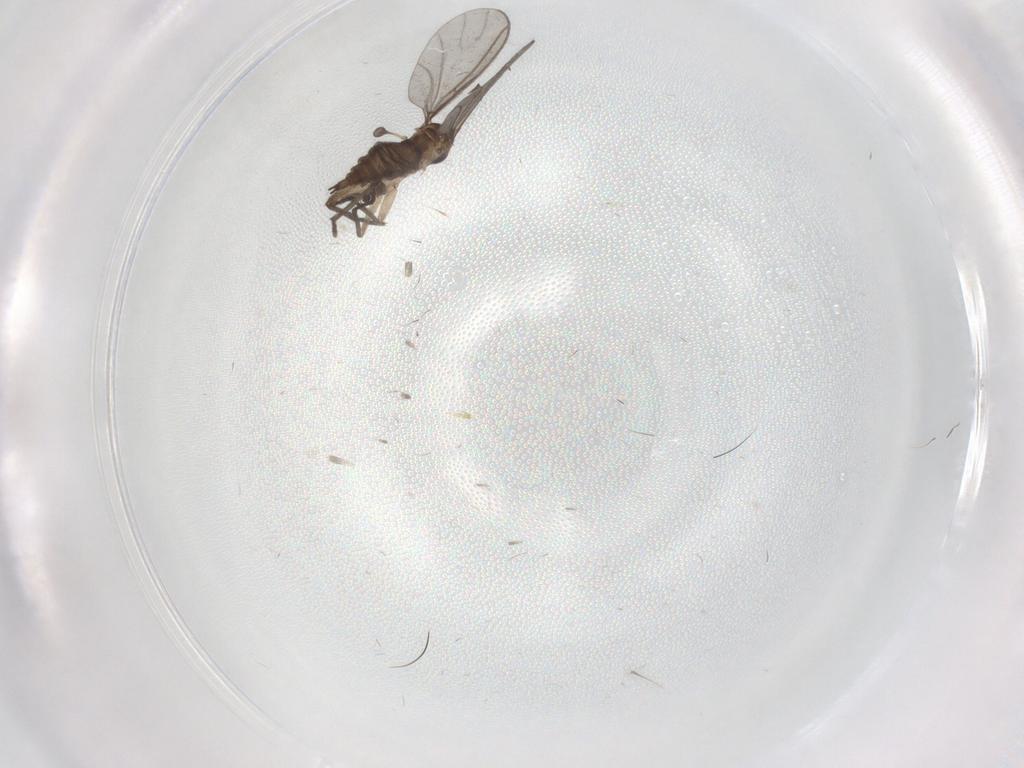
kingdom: Animalia
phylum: Arthropoda
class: Insecta
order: Diptera
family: Sciaridae
